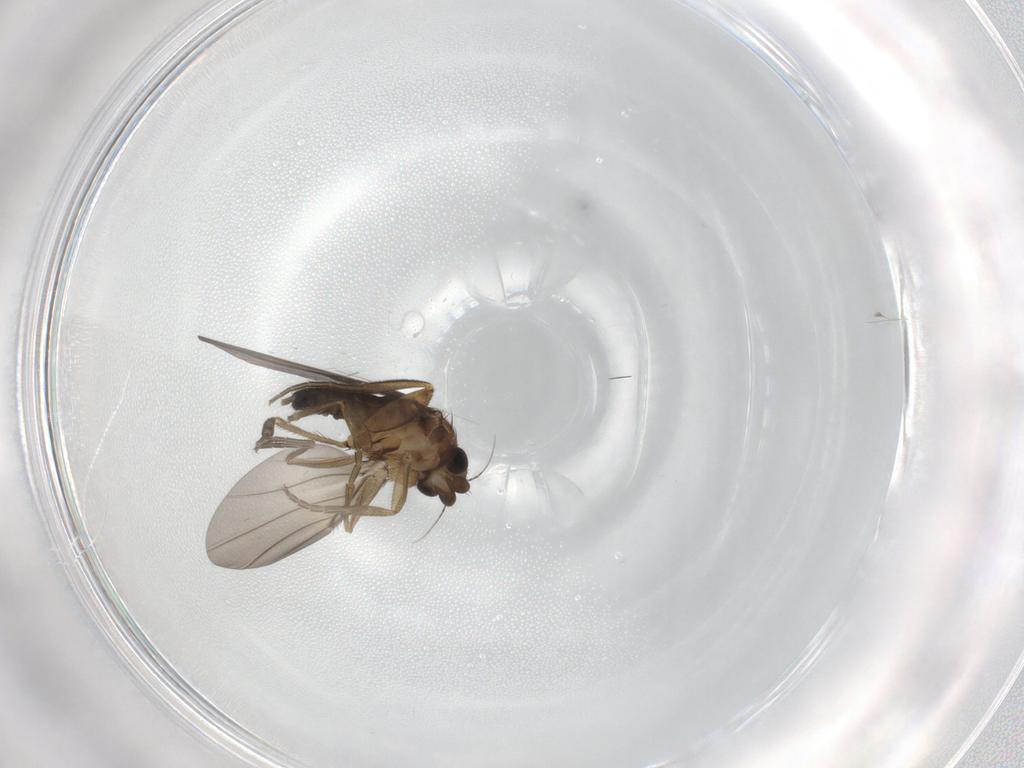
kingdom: Animalia
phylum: Arthropoda
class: Insecta
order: Diptera
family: Phoridae
